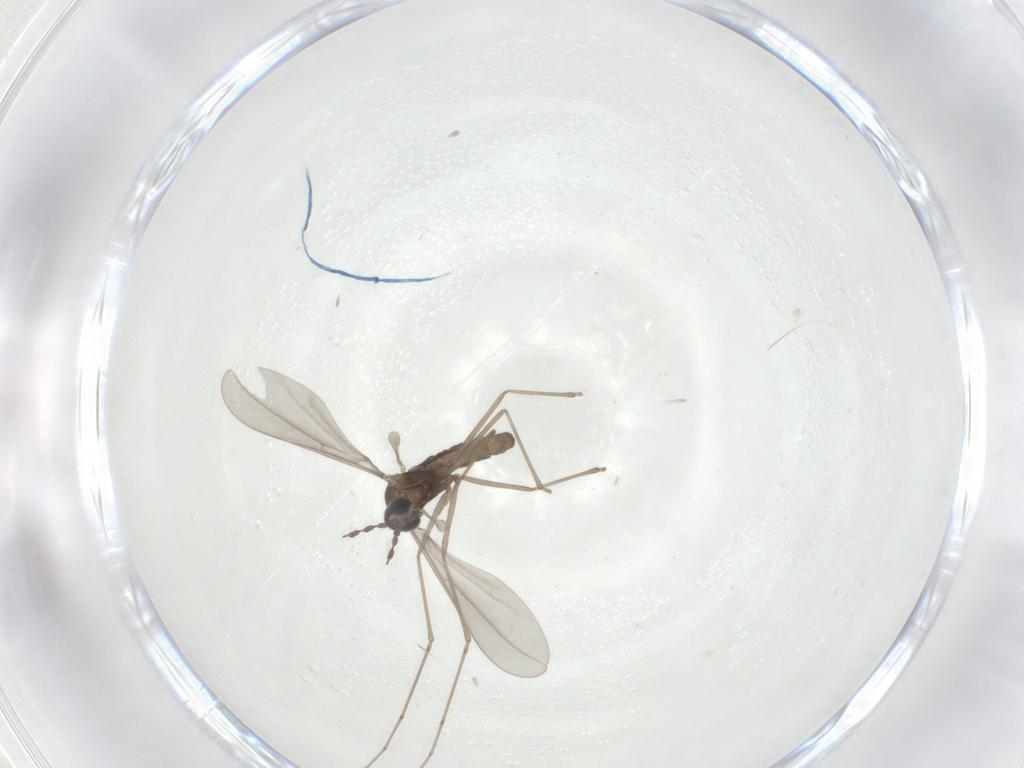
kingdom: Animalia
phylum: Arthropoda
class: Insecta
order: Diptera
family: Cecidomyiidae
